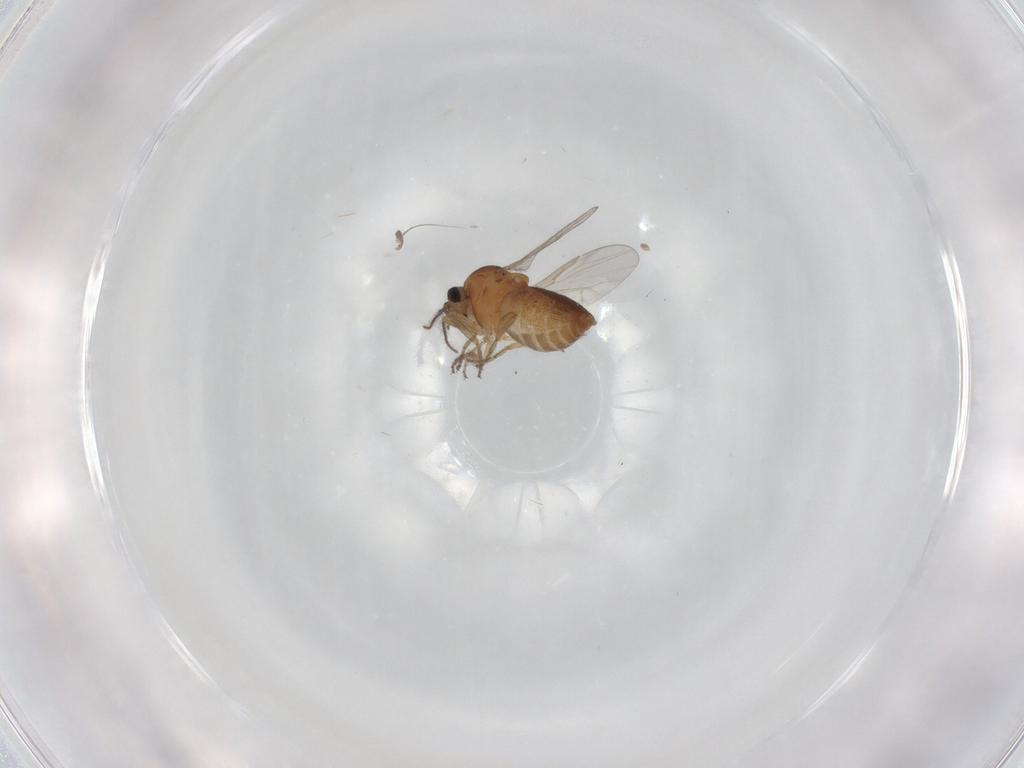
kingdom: Animalia
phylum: Arthropoda
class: Insecta
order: Diptera
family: Ceratopogonidae
